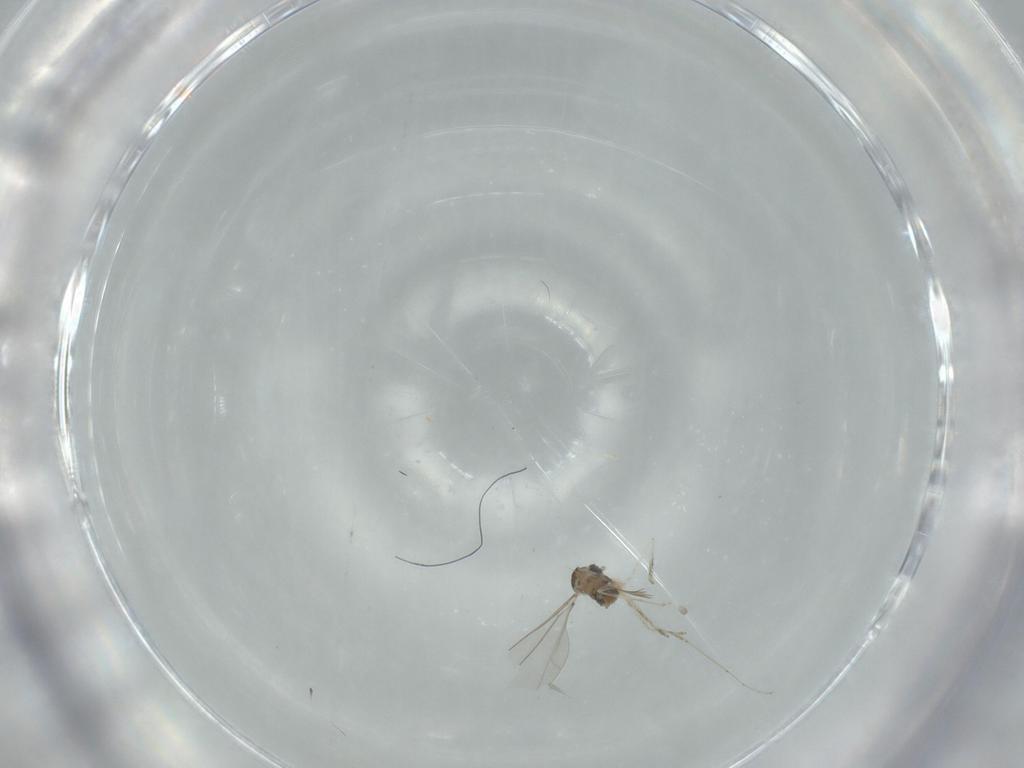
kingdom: Animalia
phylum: Arthropoda
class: Insecta
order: Diptera
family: Cecidomyiidae
